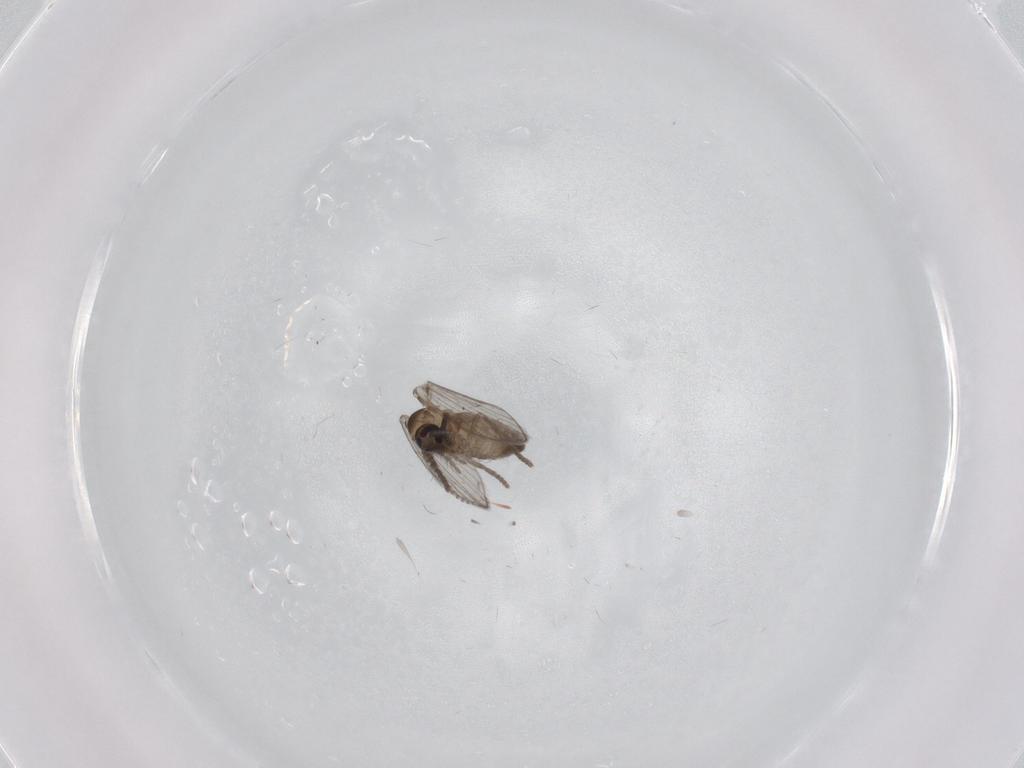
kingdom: Animalia
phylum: Arthropoda
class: Insecta
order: Diptera
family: Psychodidae
